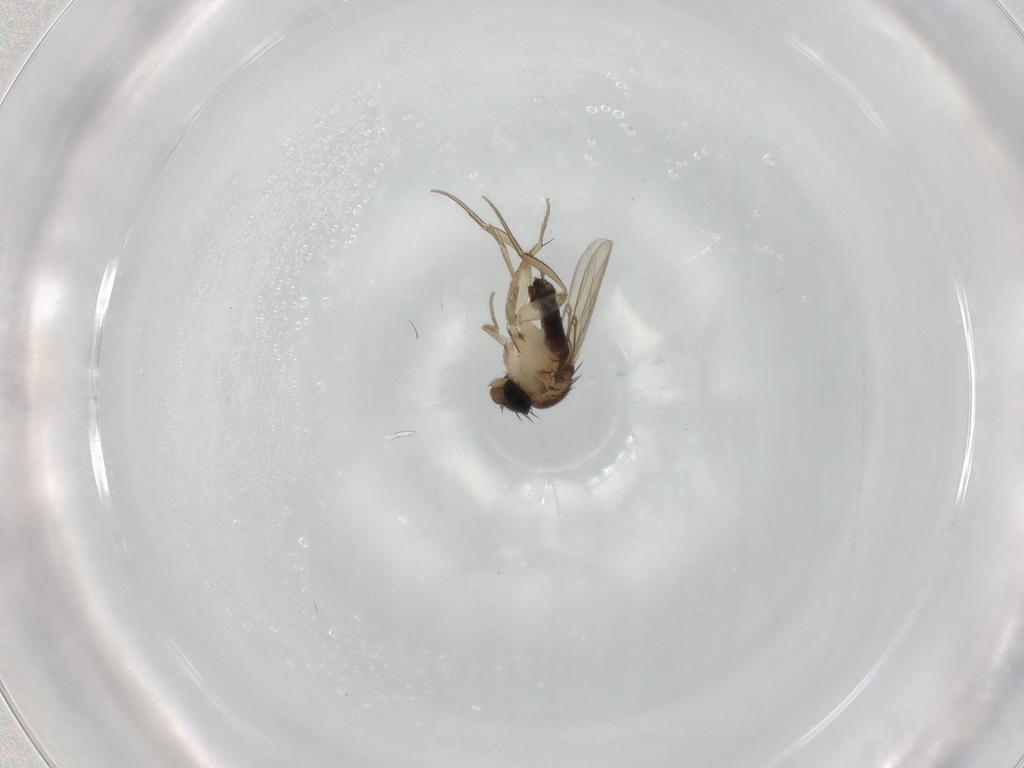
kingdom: Animalia
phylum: Arthropoda
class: Insecta
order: Diptera
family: Phoridae
